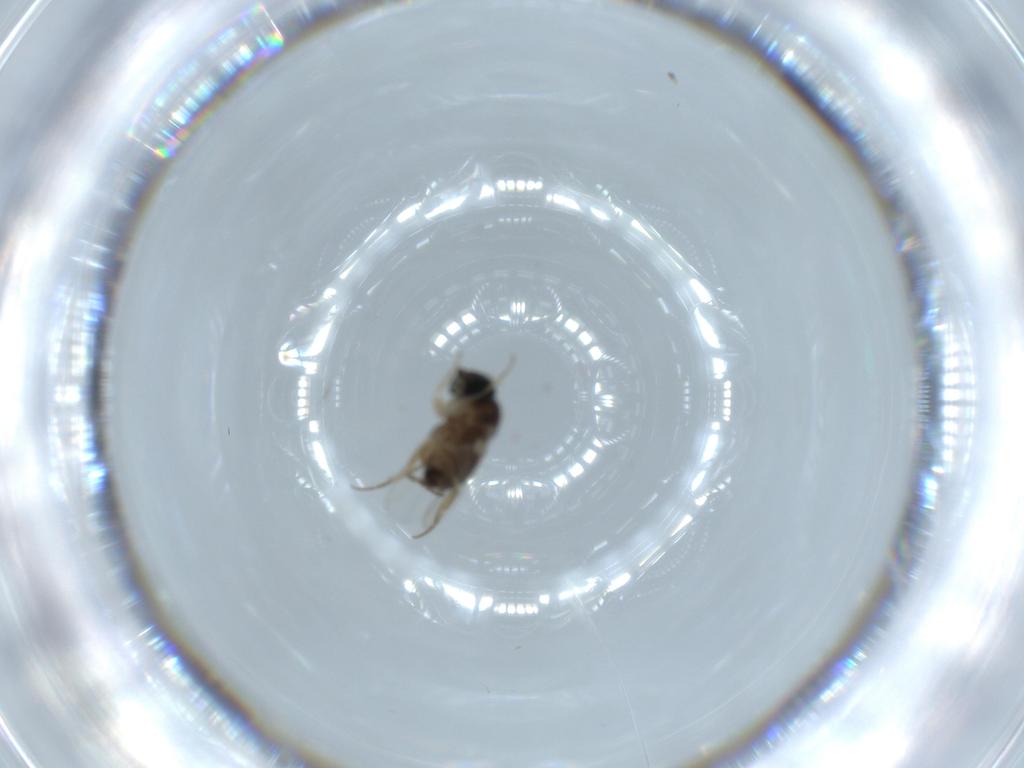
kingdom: Animalia
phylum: Arthropoda
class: Insecta
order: Diptera
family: Cecidomyiidae
